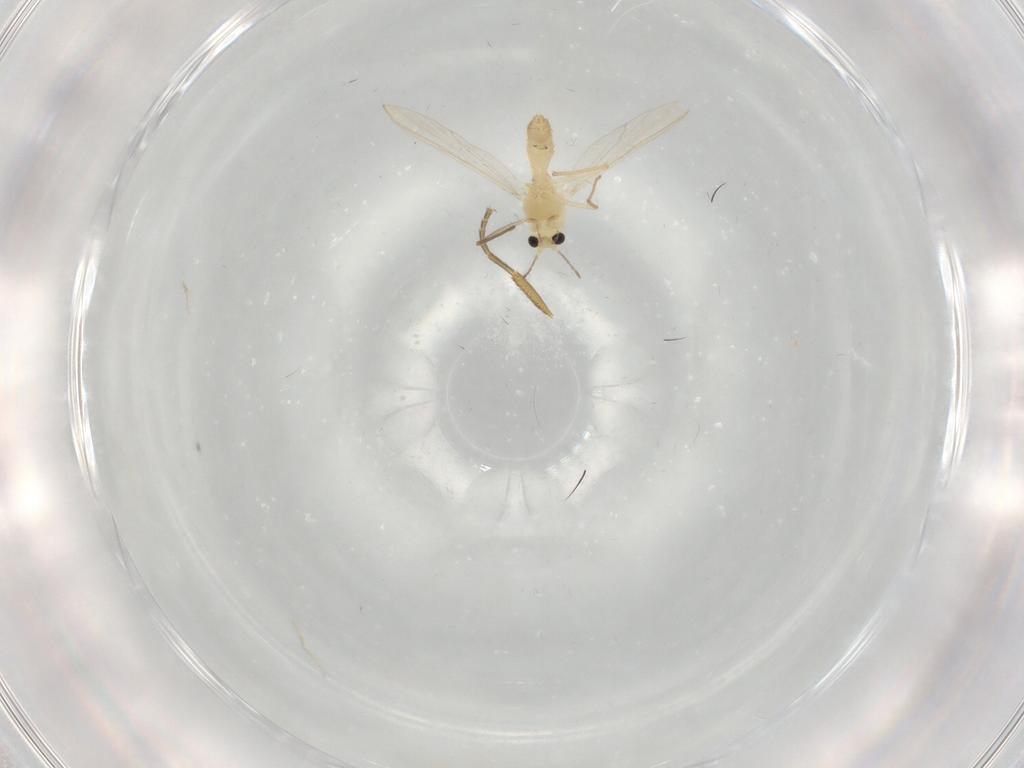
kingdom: Animalia
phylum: Arthropoda
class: Insecta
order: Diptera
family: Chironomidae
